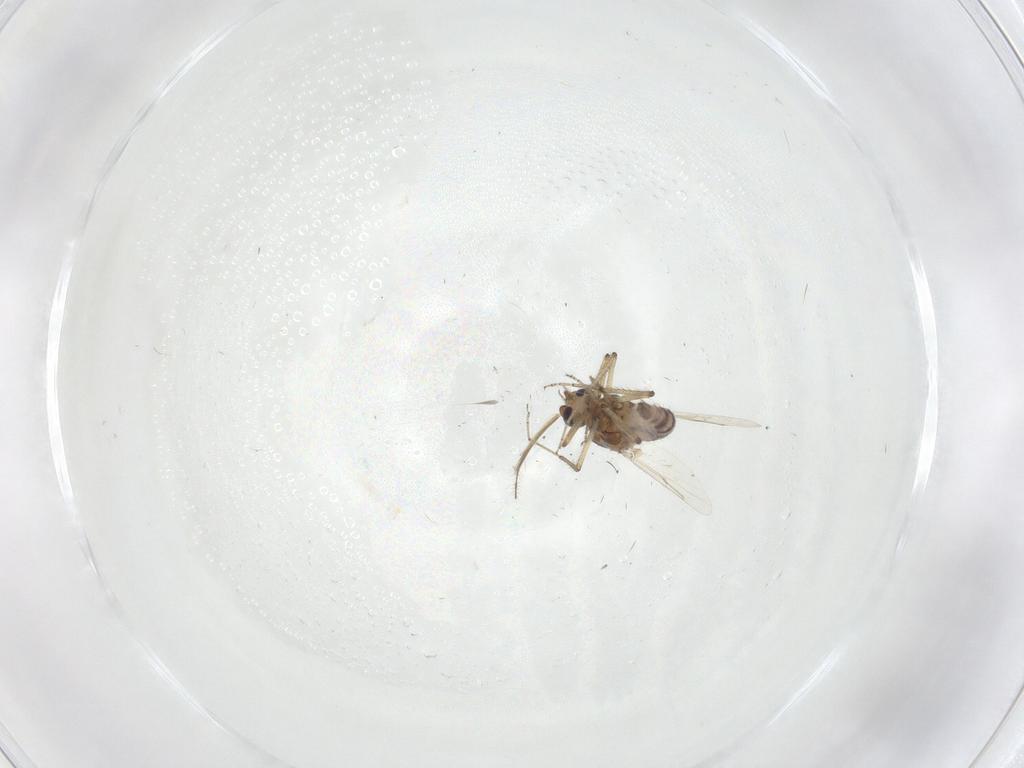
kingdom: Animalia
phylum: Arthropoda
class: Insecta
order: Diptera
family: Ceratopogonidae
